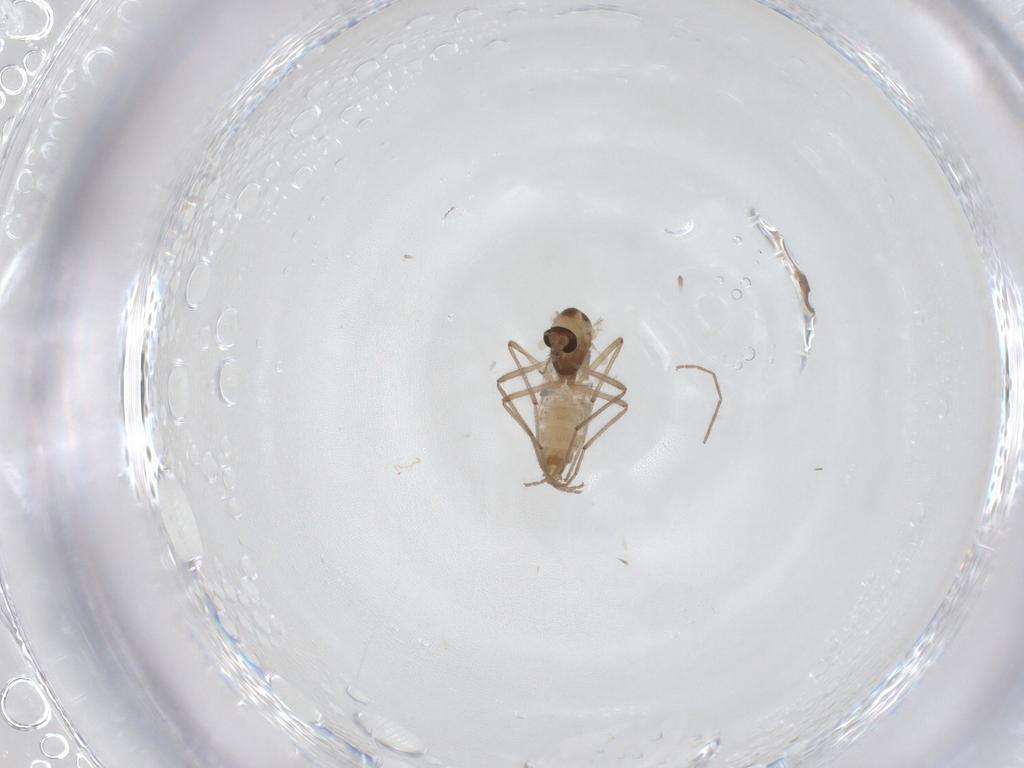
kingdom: Animalia
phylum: Arthropoda
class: Insecta
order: Diptera
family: Chironomidae
